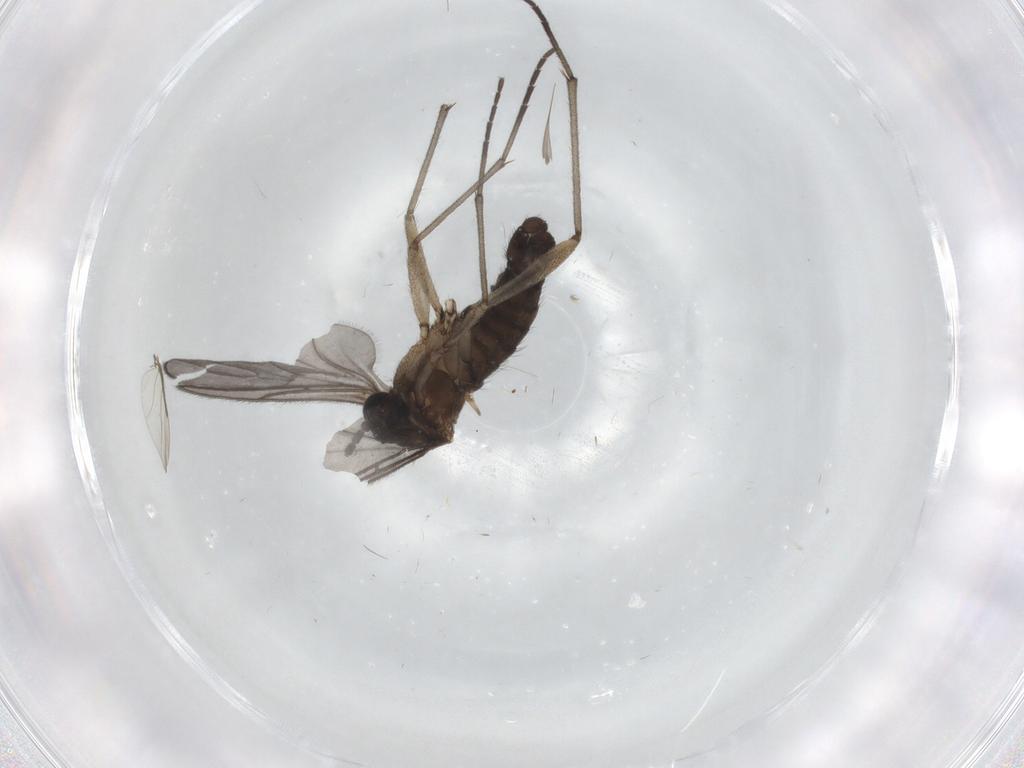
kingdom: Animalia
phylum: Arthropoda
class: Insecta
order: Diptera
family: Sciaridae
